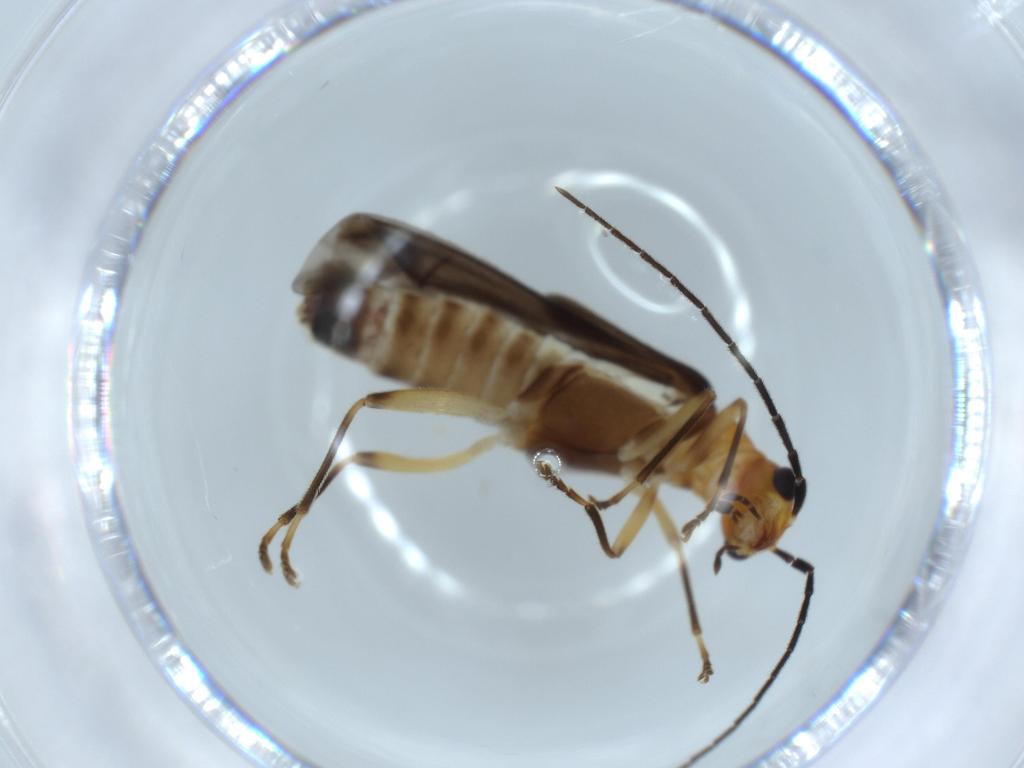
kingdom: Animalia
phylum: Arthropoda
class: Insecta
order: Coleoptera
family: Cantharidae
